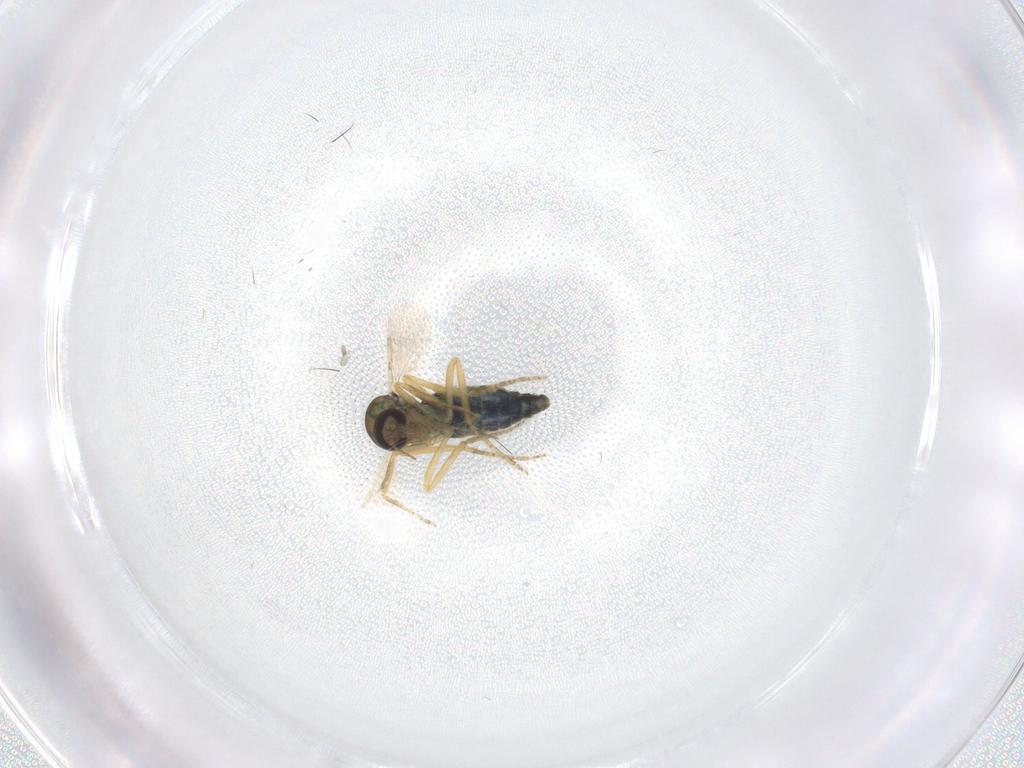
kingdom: Animalia
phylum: Arthropoda
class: Insecta
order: Diptera
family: Ceratopogonidae
